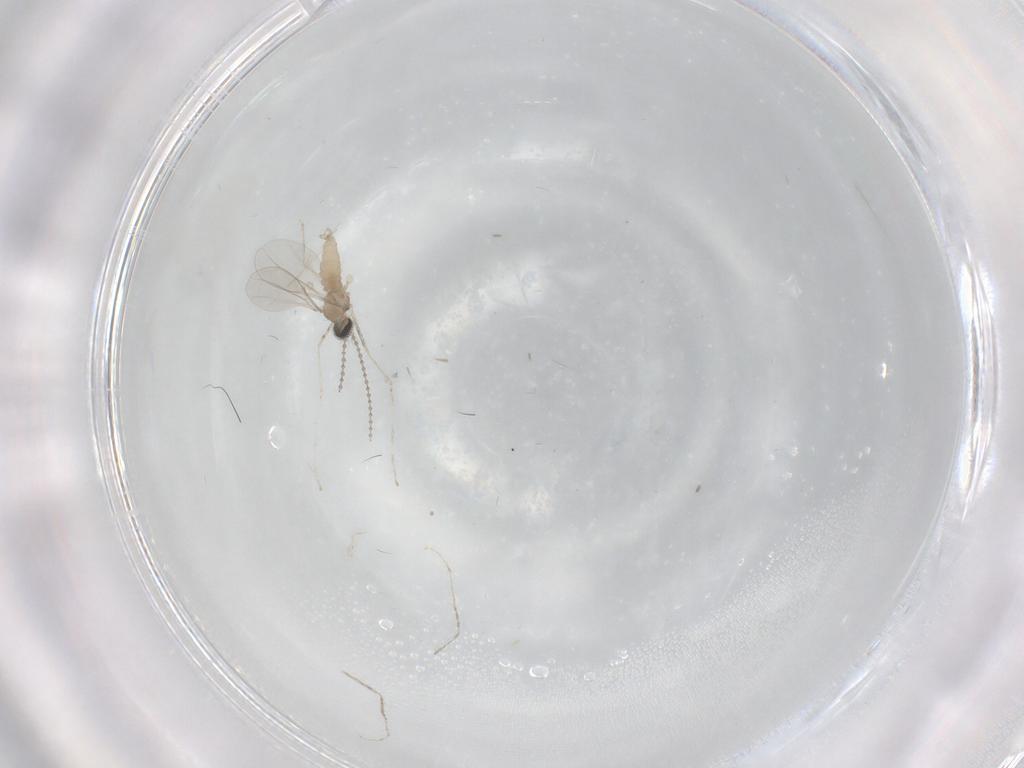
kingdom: Animalia
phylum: Arthropoda
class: Insecta
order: Diptera
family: Cecidomyiidae
